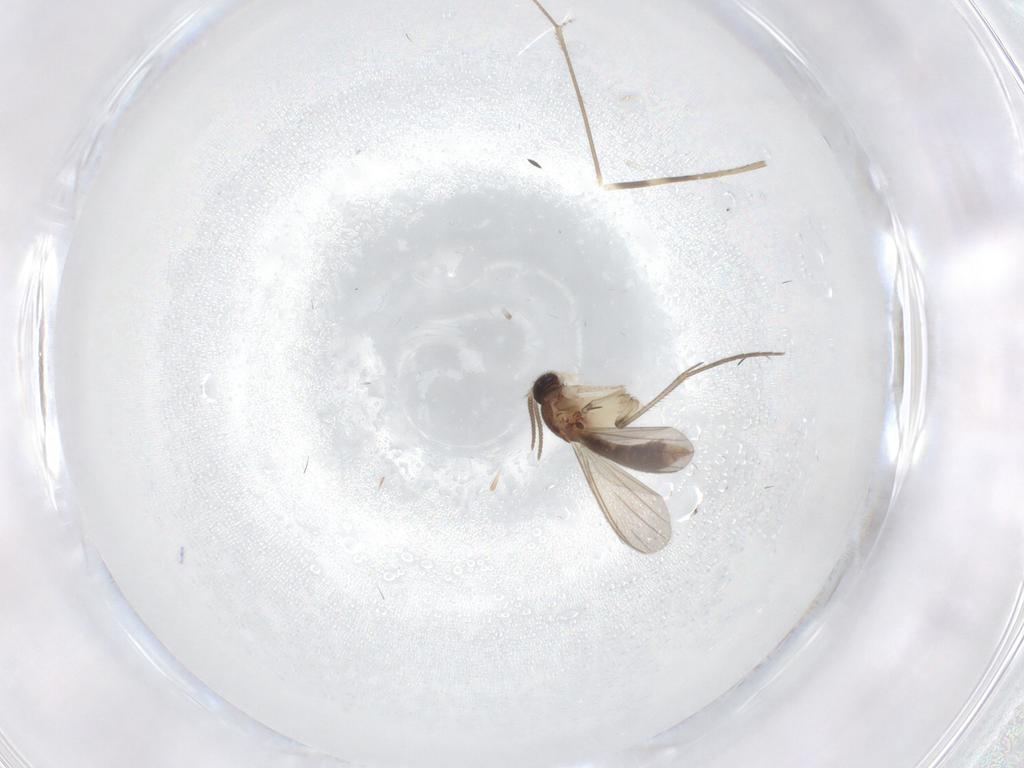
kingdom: Animalia
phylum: Arthropoda
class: Insecta
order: Diptera
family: Limoniidae
